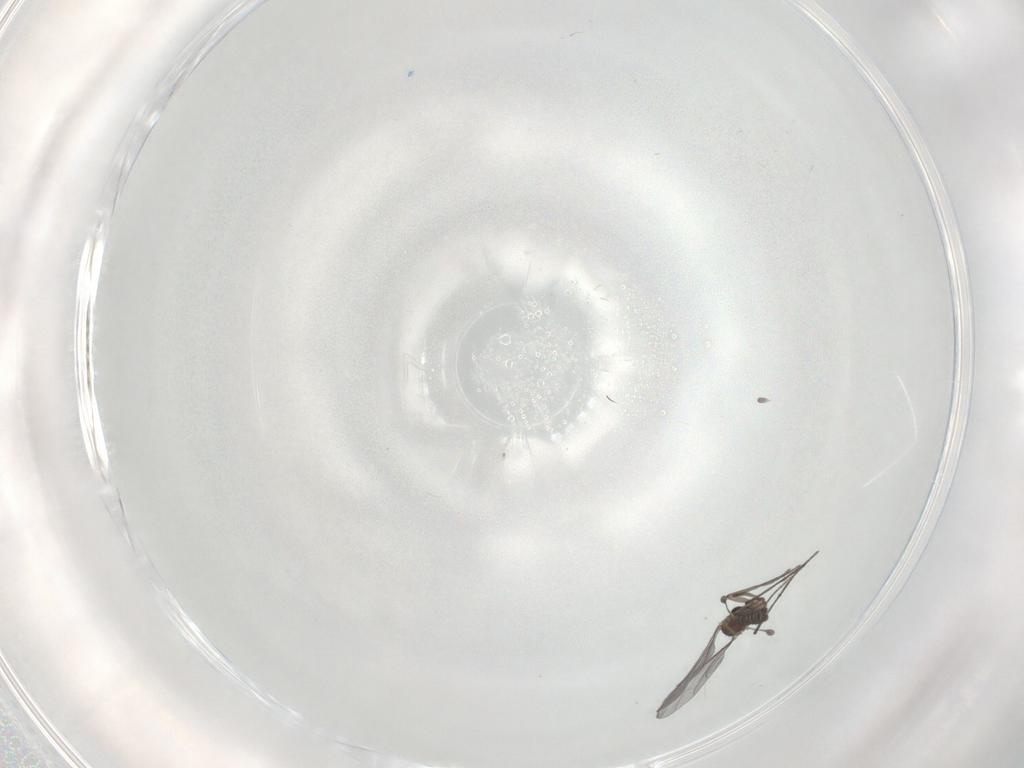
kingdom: Animalia
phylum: Arthropoda
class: Insecta
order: Diptera
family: Sciaridae
